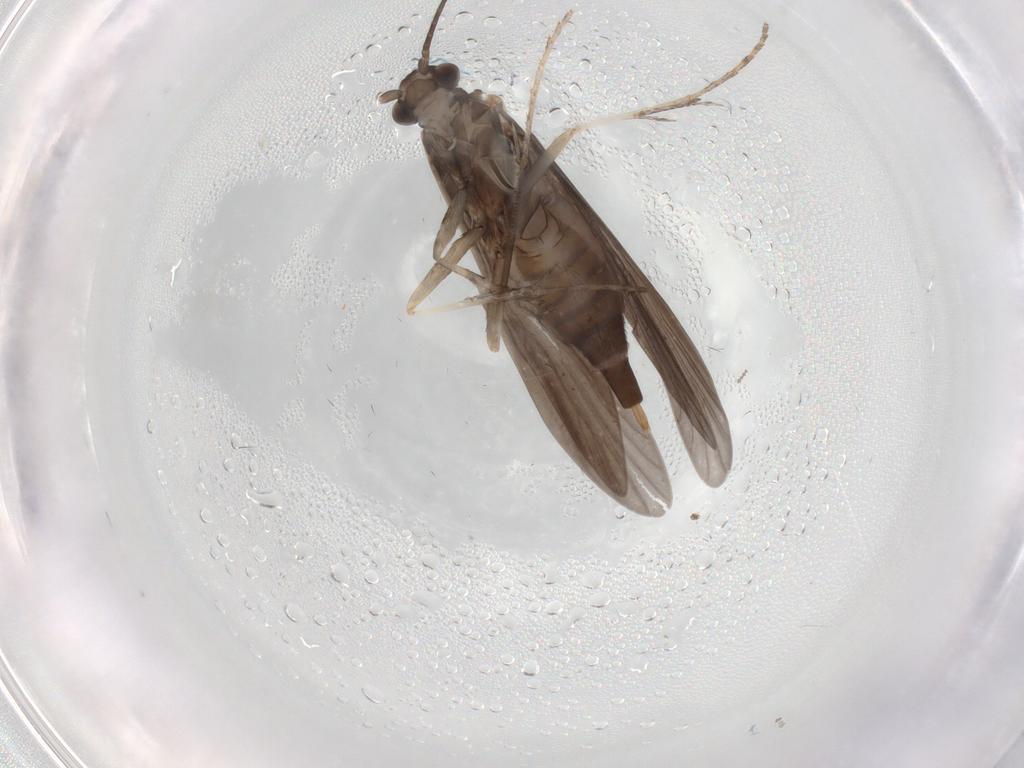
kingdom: Animalia
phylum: Arthropoda
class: Insecta
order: Trichoptera
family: Xiphocentronidae
